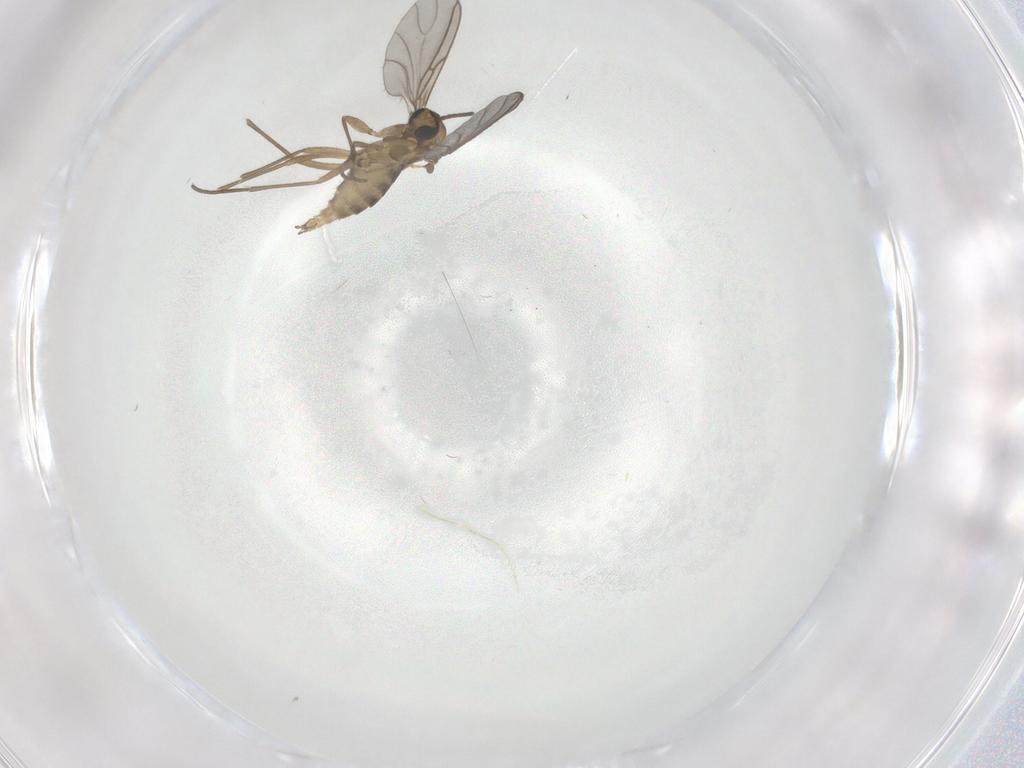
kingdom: Animalia
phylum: Arthropoda
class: Insecta
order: Diptera
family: Sciaridae
